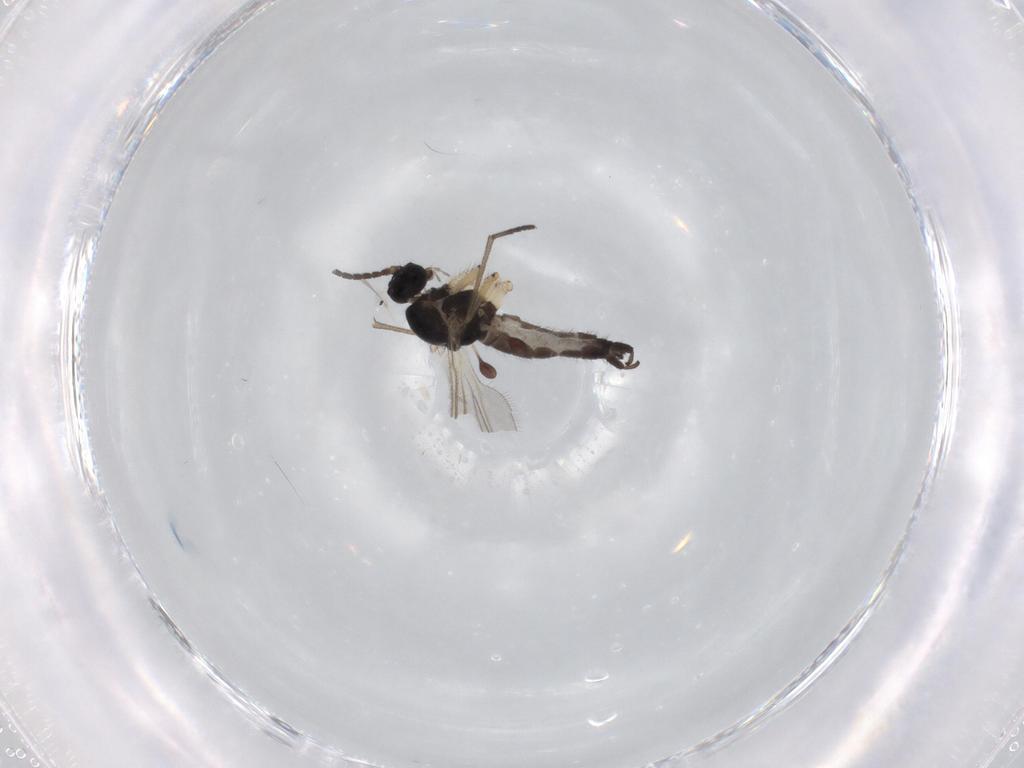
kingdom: Animalia
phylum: Arthropoda
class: Insecta
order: Diptera
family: Sciaridae
